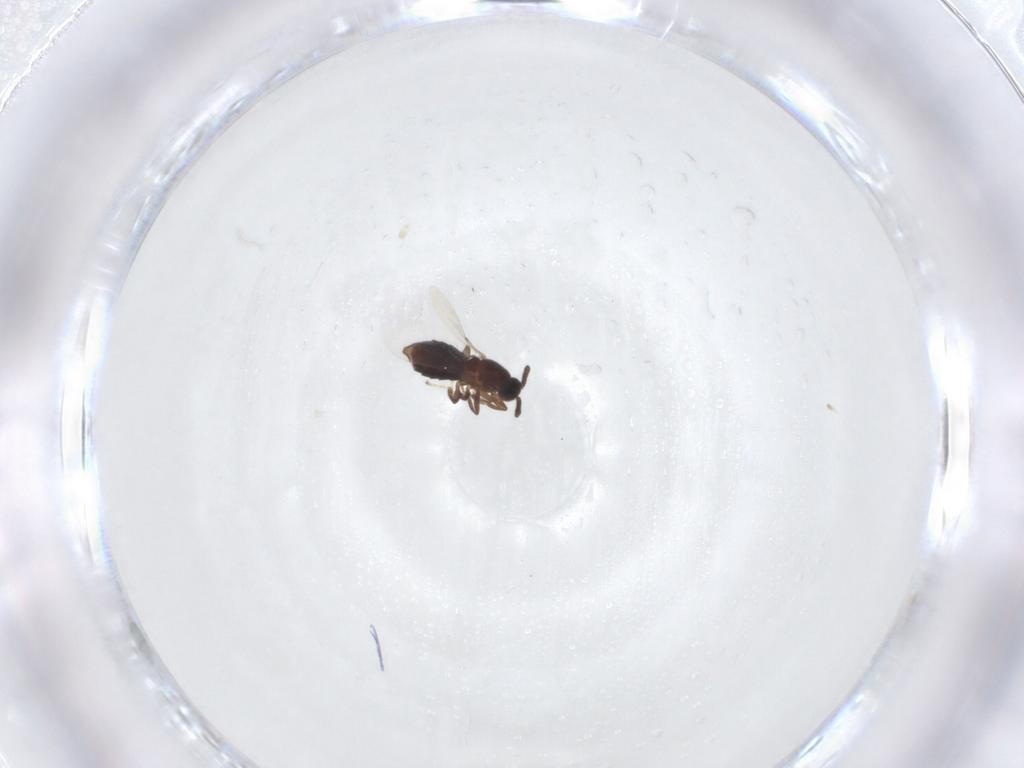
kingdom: Animalia
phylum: Arthropoda
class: Insecta
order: Diptera
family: Scatopsidae
